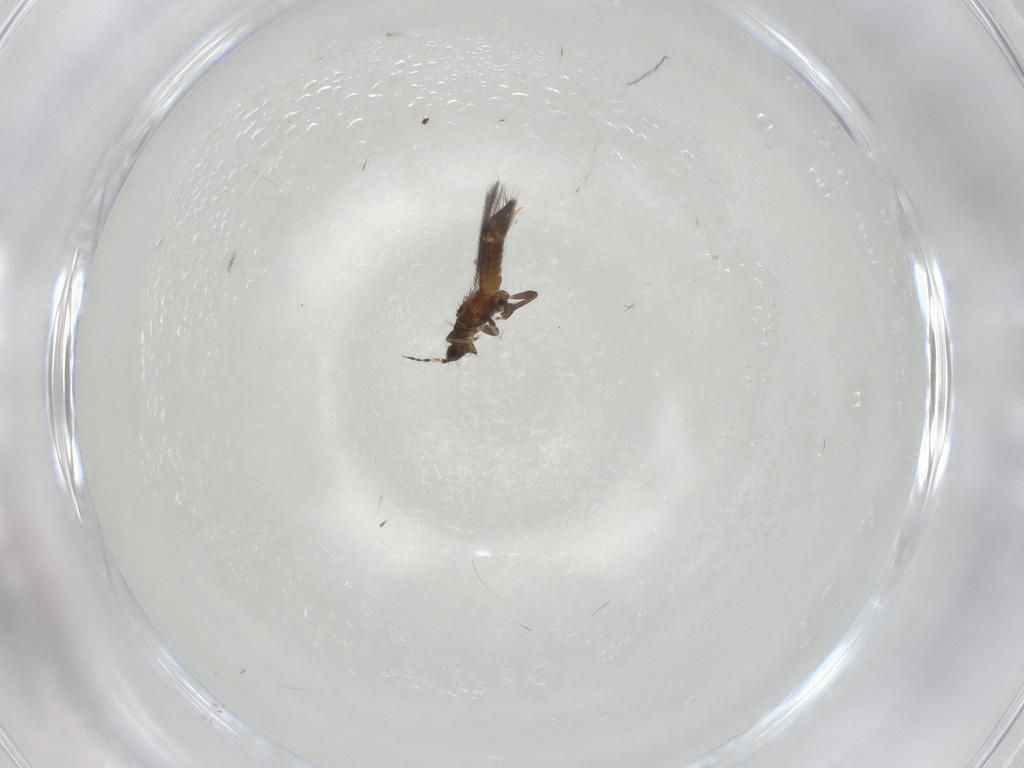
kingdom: Animalia
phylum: Arthropoda
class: Insecta
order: Thysanoptera
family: Thripidae
